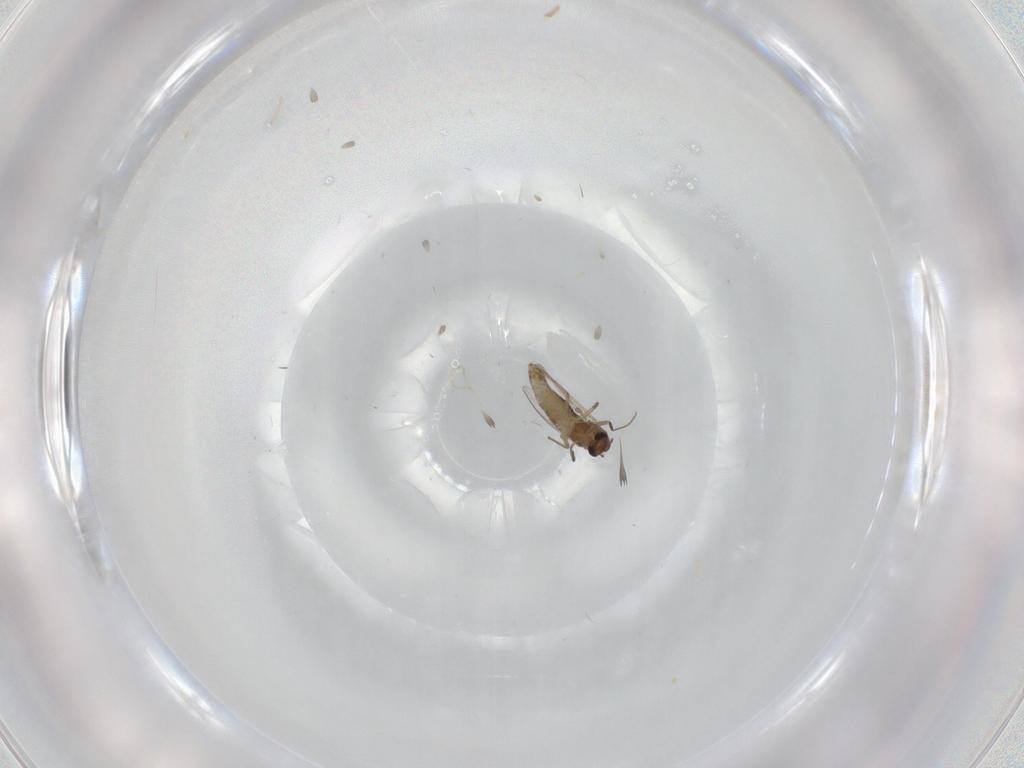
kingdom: Animalia
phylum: Arthropoda
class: Insecta
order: Diptera
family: Chironomidae
